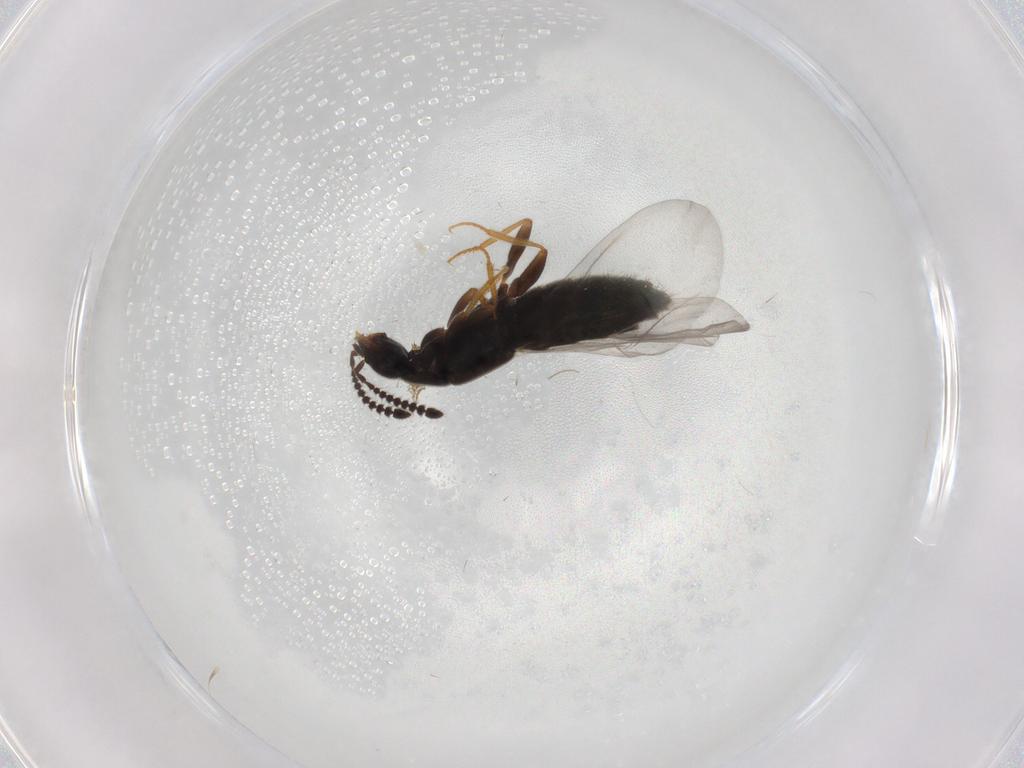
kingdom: Animalia
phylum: Arthropoda
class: Insecta
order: Coleoptera
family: Staphylinidae
